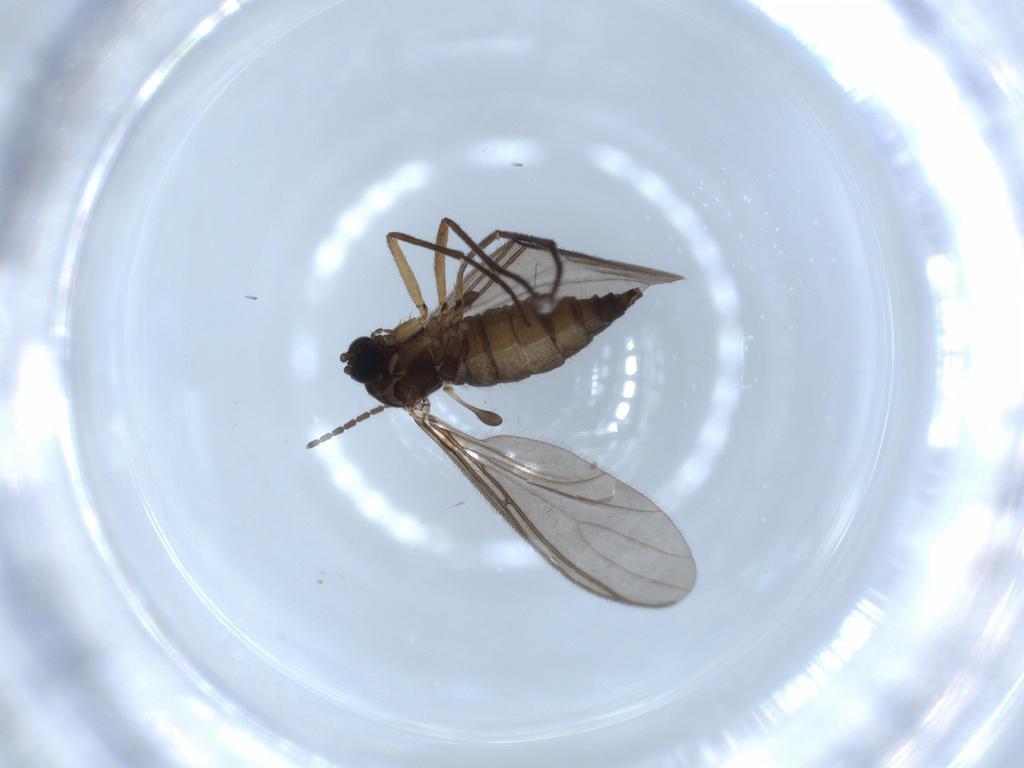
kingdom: Animalia
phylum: Arthropoda
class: Insecta
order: Diptera
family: Sciaridae
